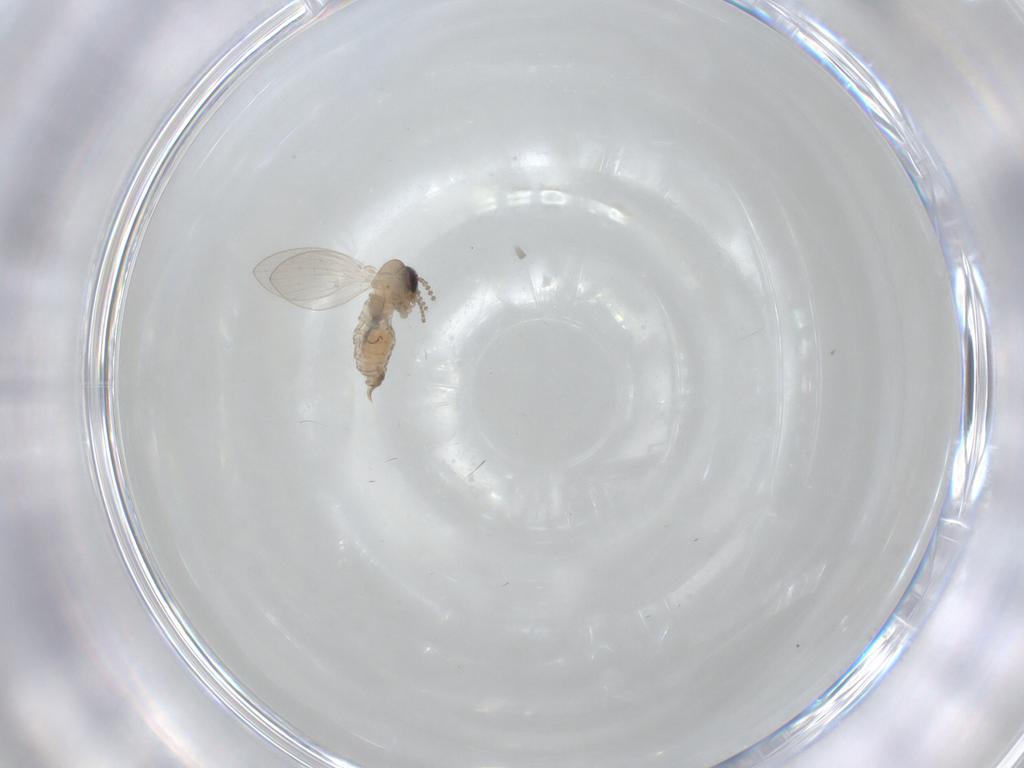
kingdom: Animalia
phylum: Arthropoda
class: Insecta
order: Diptera
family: Psychodidae
